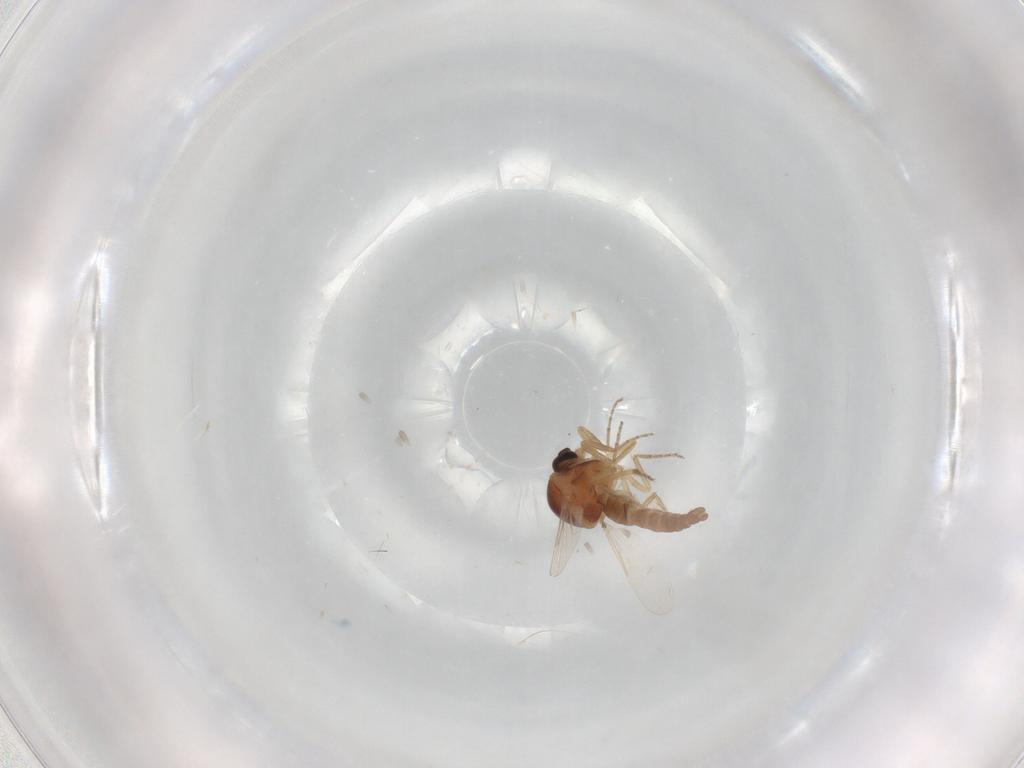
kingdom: Animalia
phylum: Arthropoda
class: Insecta
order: Diptera
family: Ceratopogonidae
